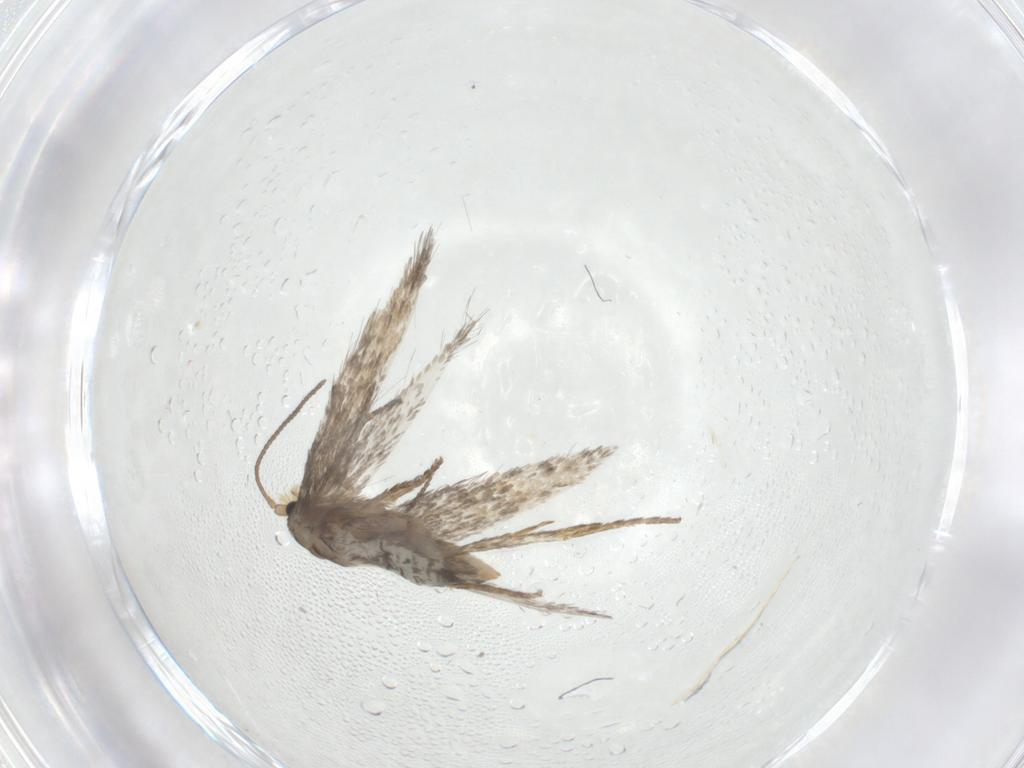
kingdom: Animalia
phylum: Arthropoda
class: Insecta
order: Lepidoptera
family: Nepticulidae
